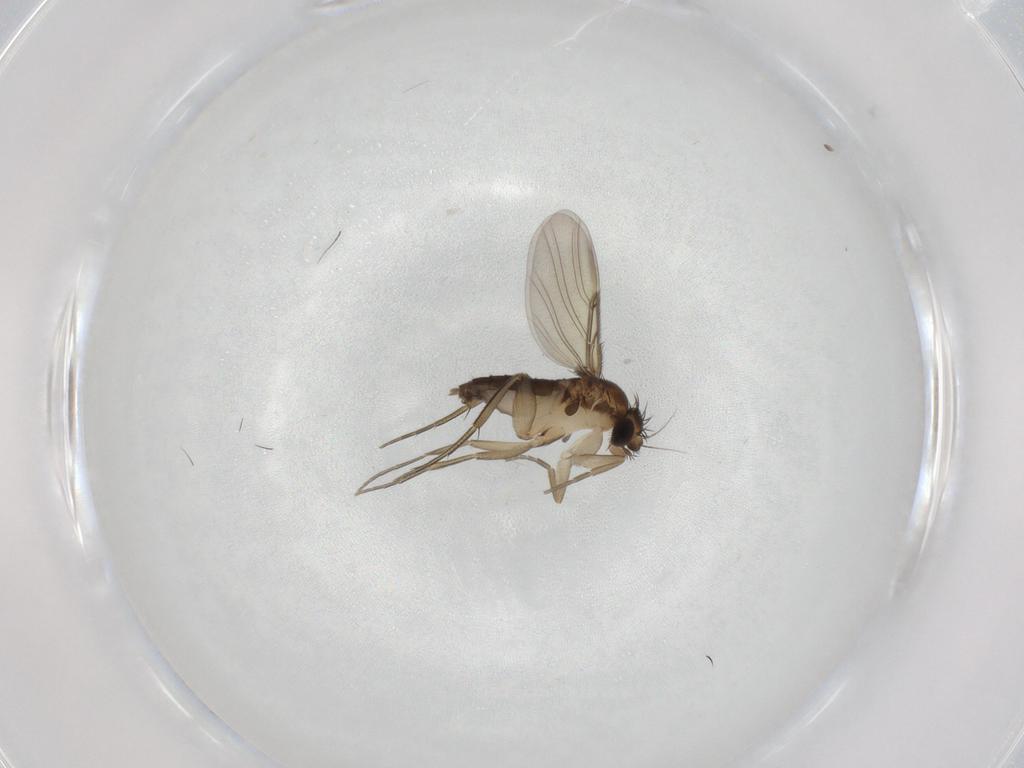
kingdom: Animalia
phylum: Arthropoda
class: Insecta
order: Diptera
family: Phoridae
